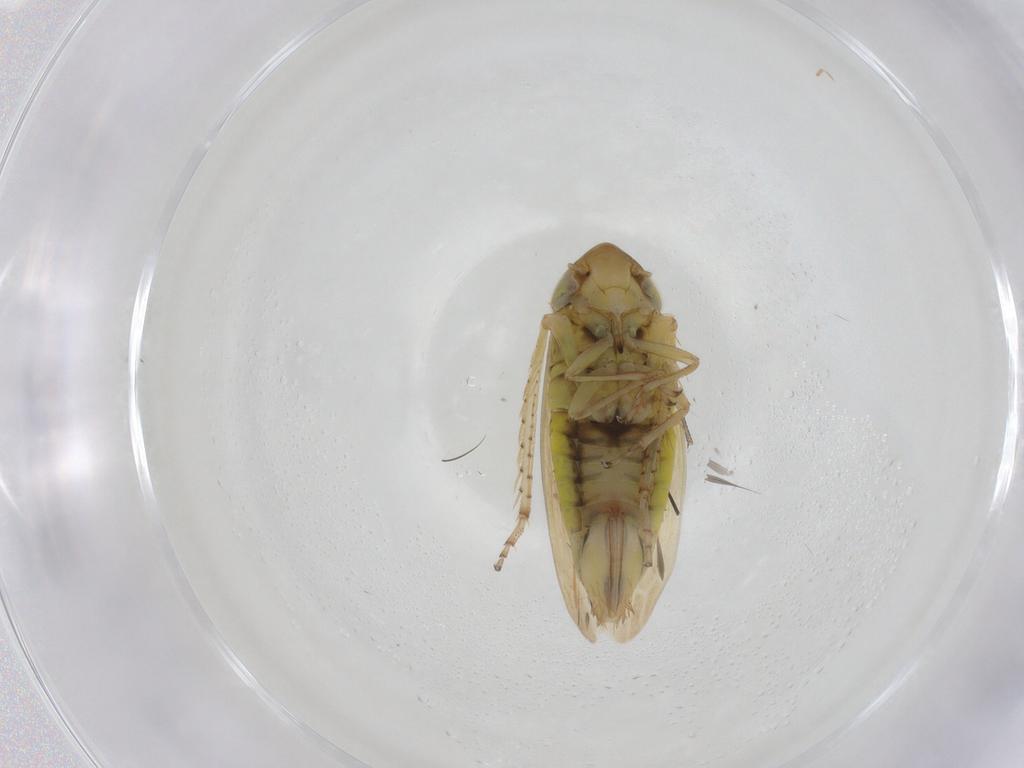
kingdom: Animalia
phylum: Arthropoda
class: Insecta
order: Hemiptera
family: Cicadellidae
